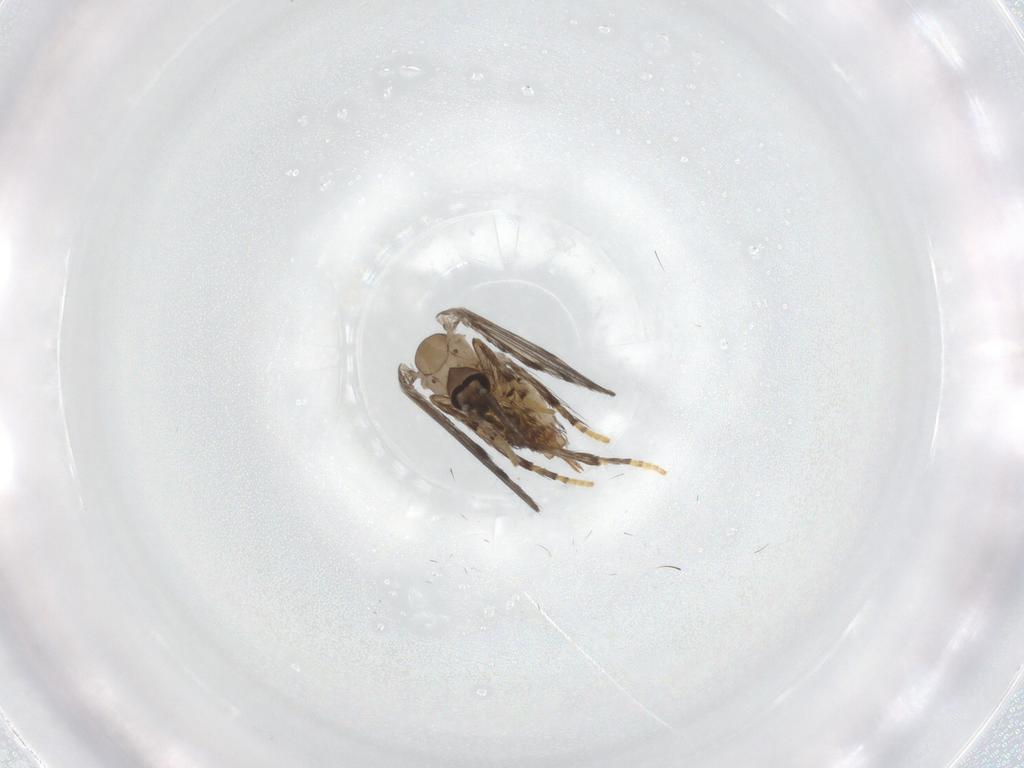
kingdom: Animalia
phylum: Arthropoda
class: Insecta
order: Diptera
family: Psychodidae
